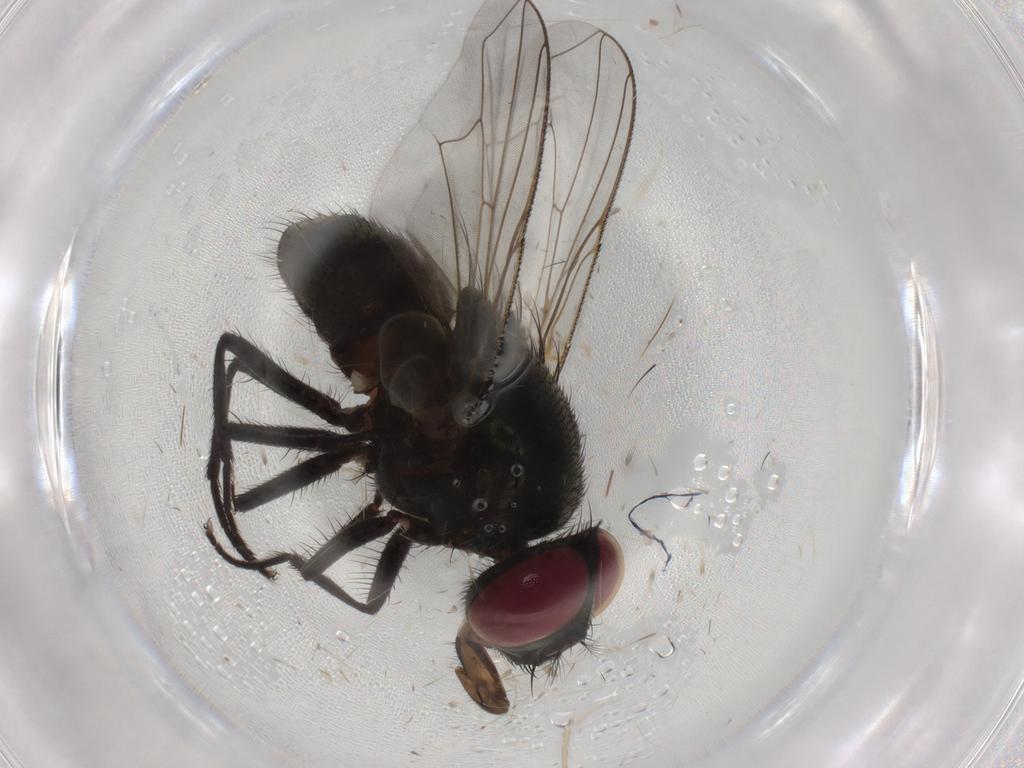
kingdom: Animalia
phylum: Arthropoda
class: Insecta
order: Diptera
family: Muscidae
